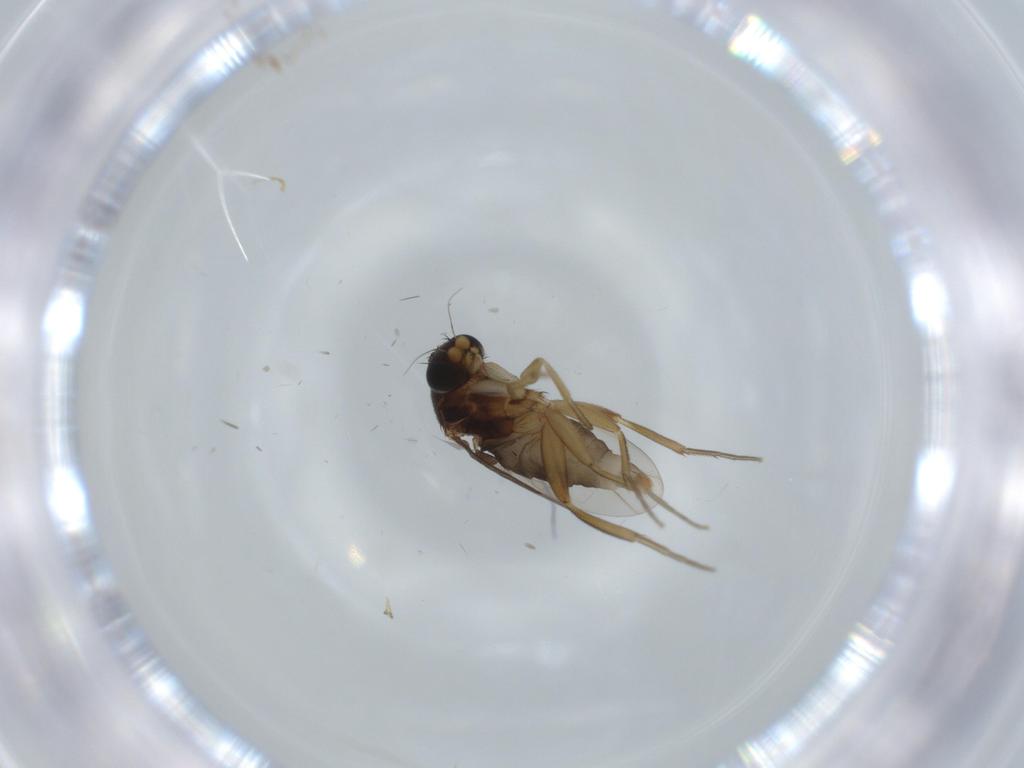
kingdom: Animalia
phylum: Arthropoda
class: Insecta
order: Diptera
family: Phoridae
